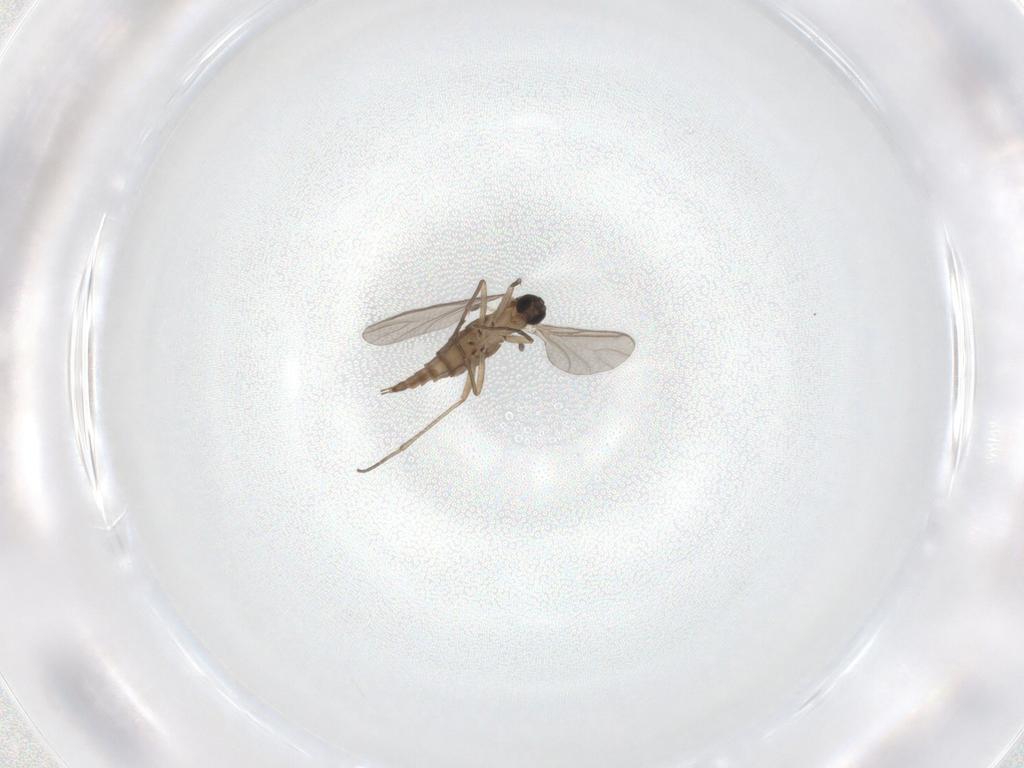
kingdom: Animalia
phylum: Arthropoda
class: Insecta
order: Diptera
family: Sciaridae
